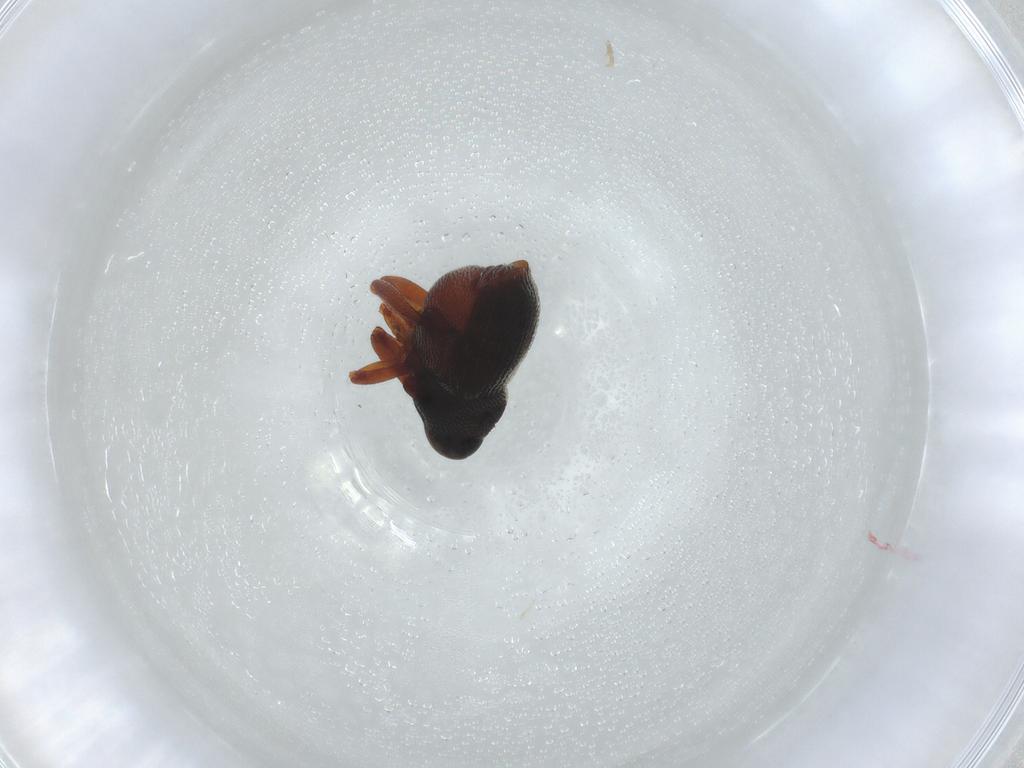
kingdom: Animalia
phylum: Arthropoda
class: Insecta
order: Coleoptera
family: Curculionidae
